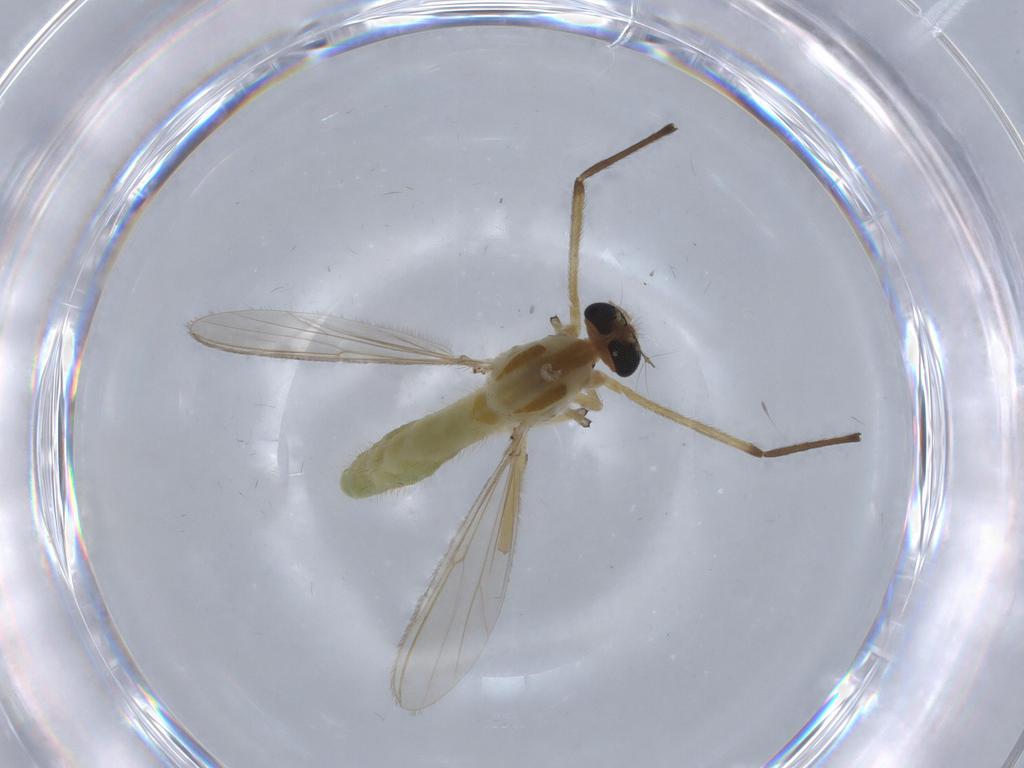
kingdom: Animalia
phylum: Arthropoda
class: Insecta
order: Diptera
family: Chironomidae
